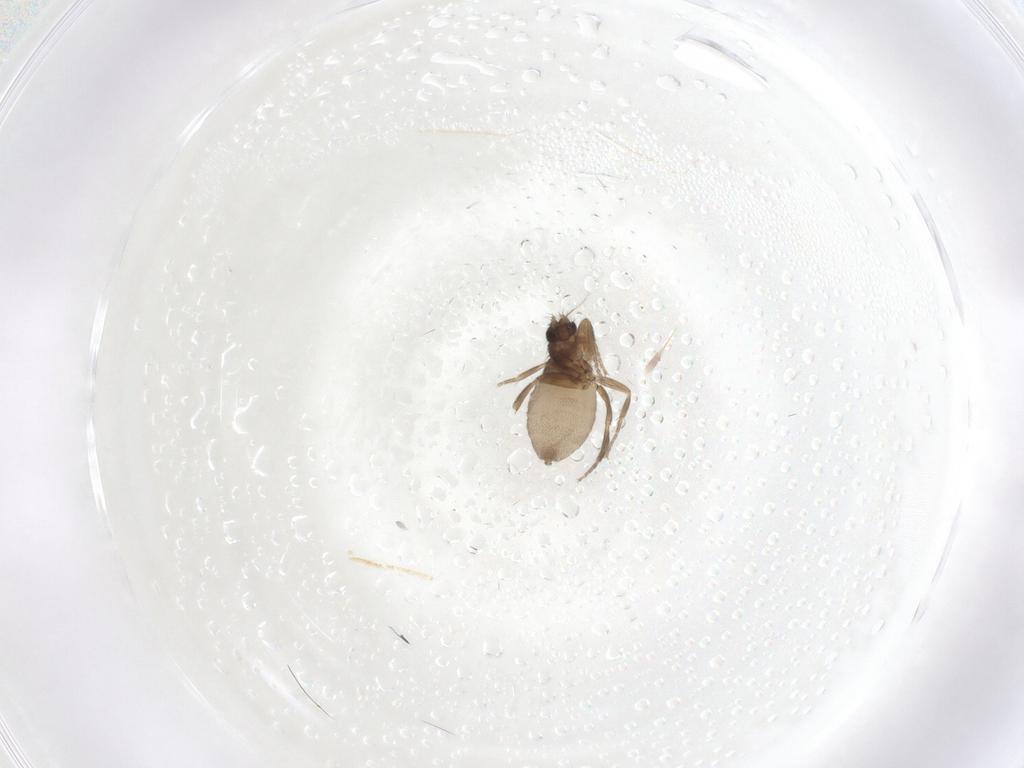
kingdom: Animalia
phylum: Arthropoda
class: Insecta
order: Diptera
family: Phoridae
